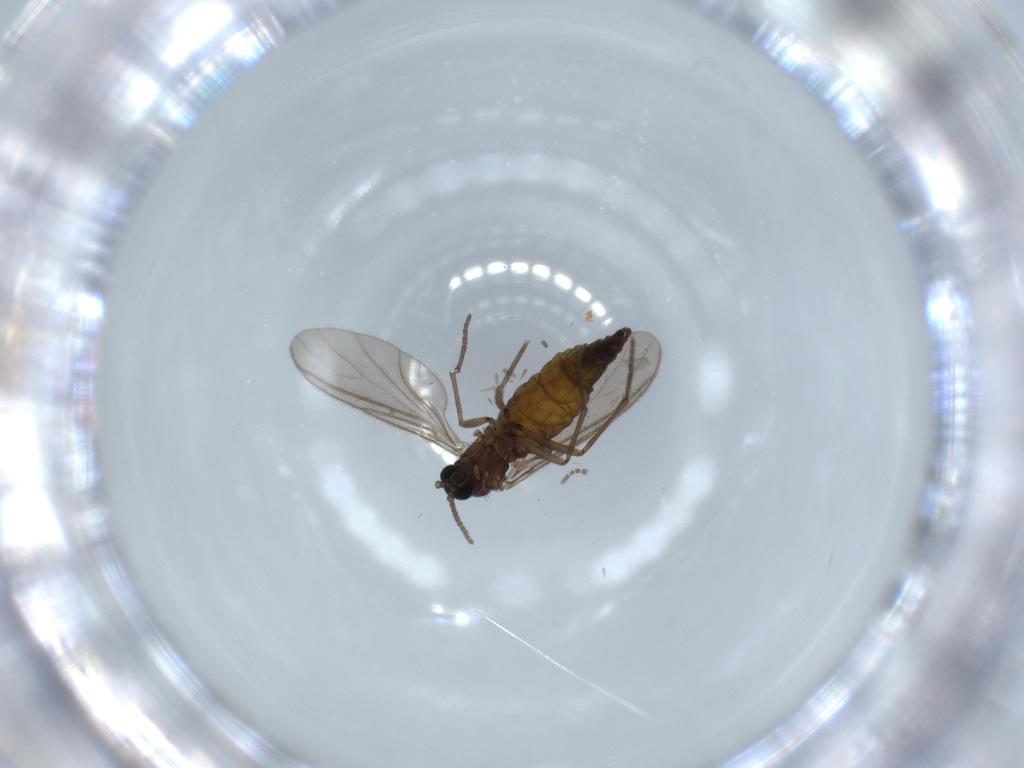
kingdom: Animalia
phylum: Arthropoda
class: Insecta
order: Diptera
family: Sciaridae
